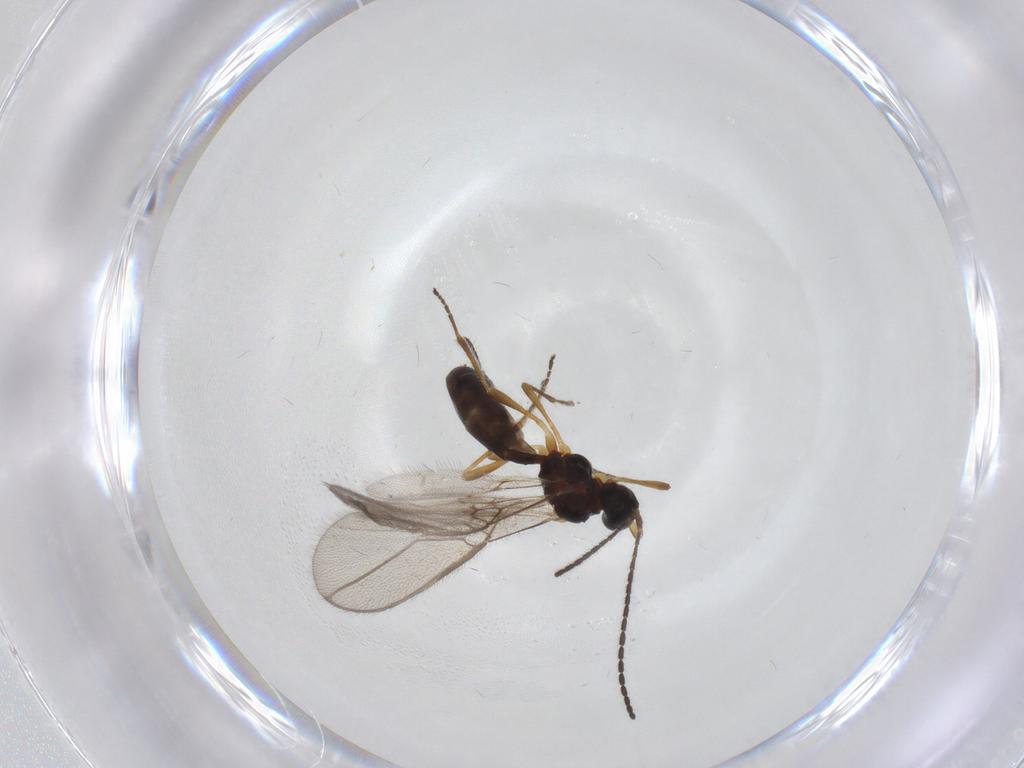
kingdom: Animalia
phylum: Arthropoda
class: Insecta
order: Hymenoptera
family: Braconidae
